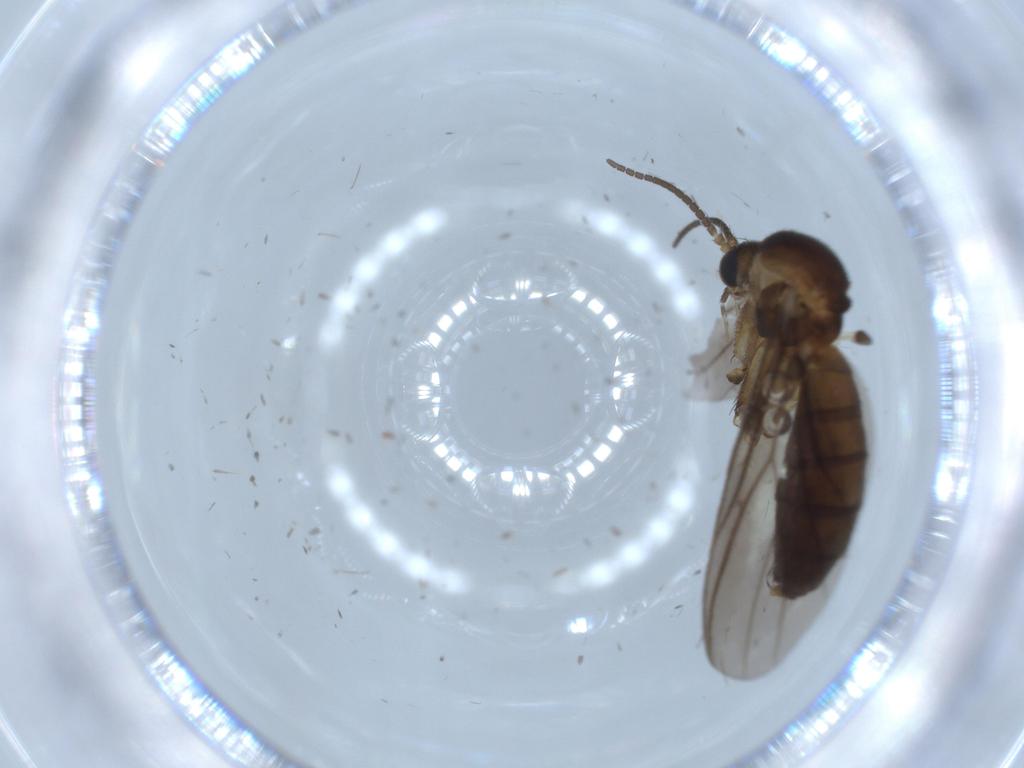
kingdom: Animalia
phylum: Arthropoda
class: Insecta
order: Diptera
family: Mycetophilidae
